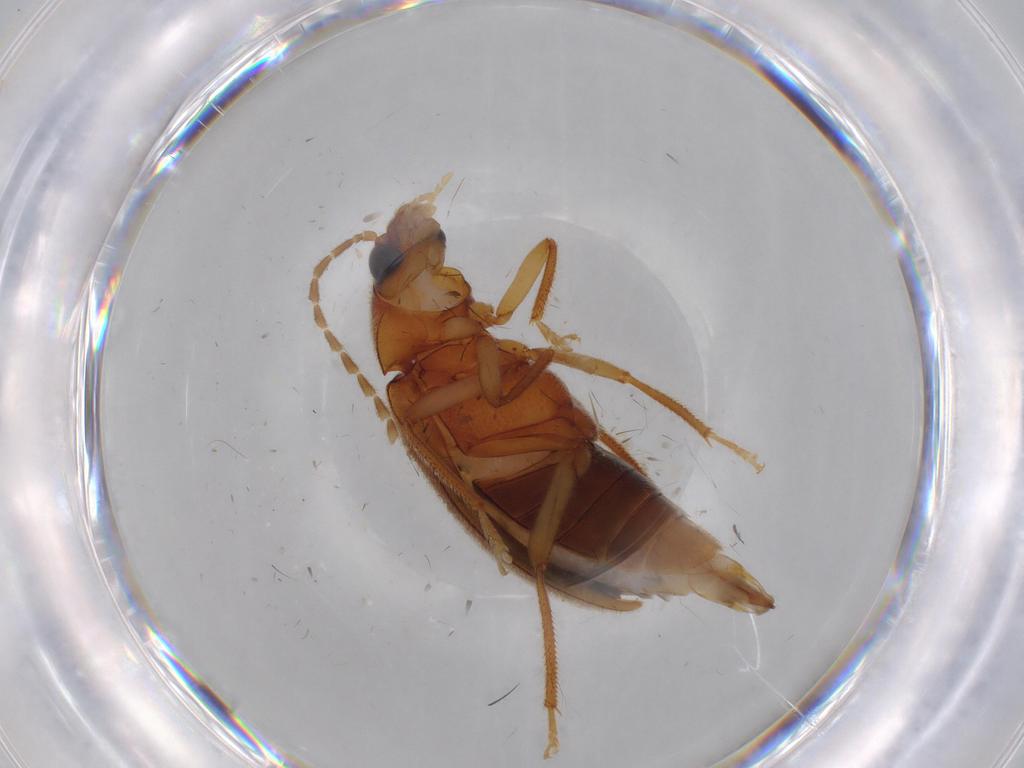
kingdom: Animalia
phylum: Arthropoda
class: Insecta
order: Coleoptera
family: Ptilodactylidae
